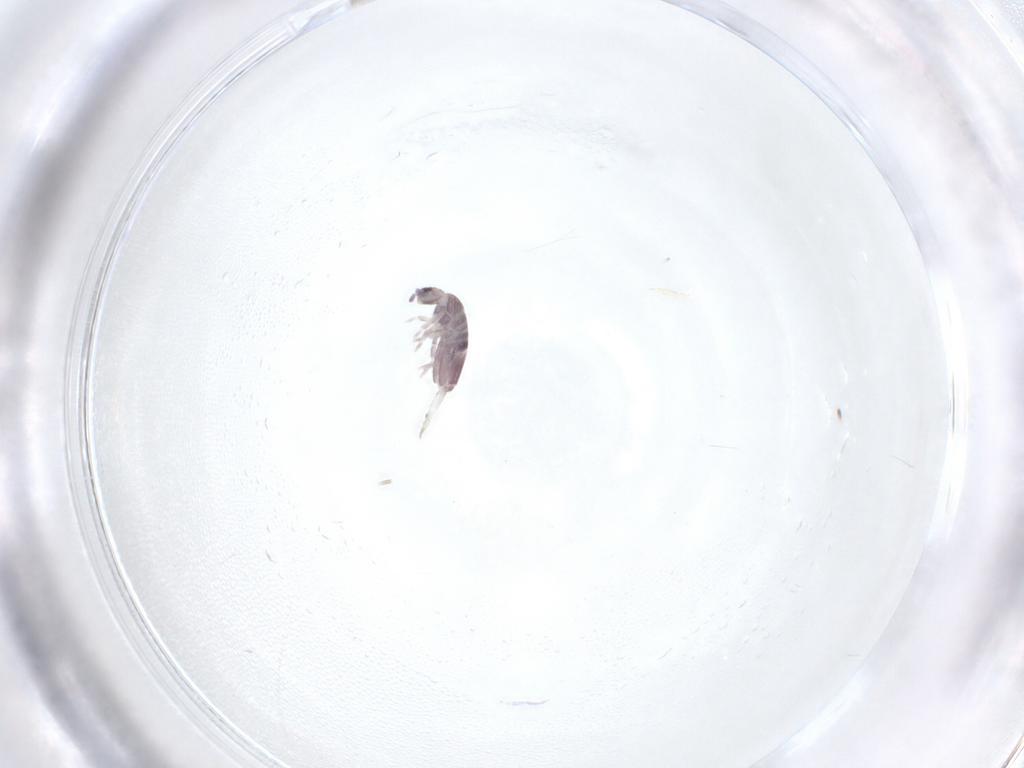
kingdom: Animalia
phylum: Arthropoda
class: Collembola
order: Entomobryomorpha
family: Entomobryidae
